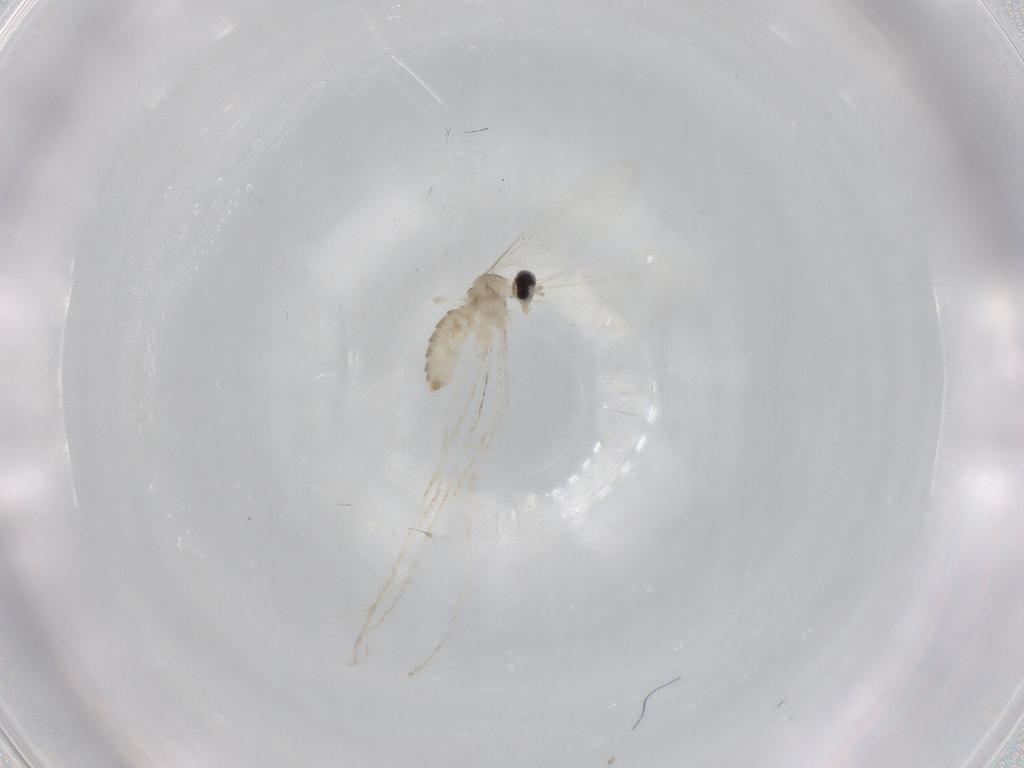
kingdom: Animalia
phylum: Arthropoda
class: Insecta
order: Diptera
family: Cecidomyiidae
